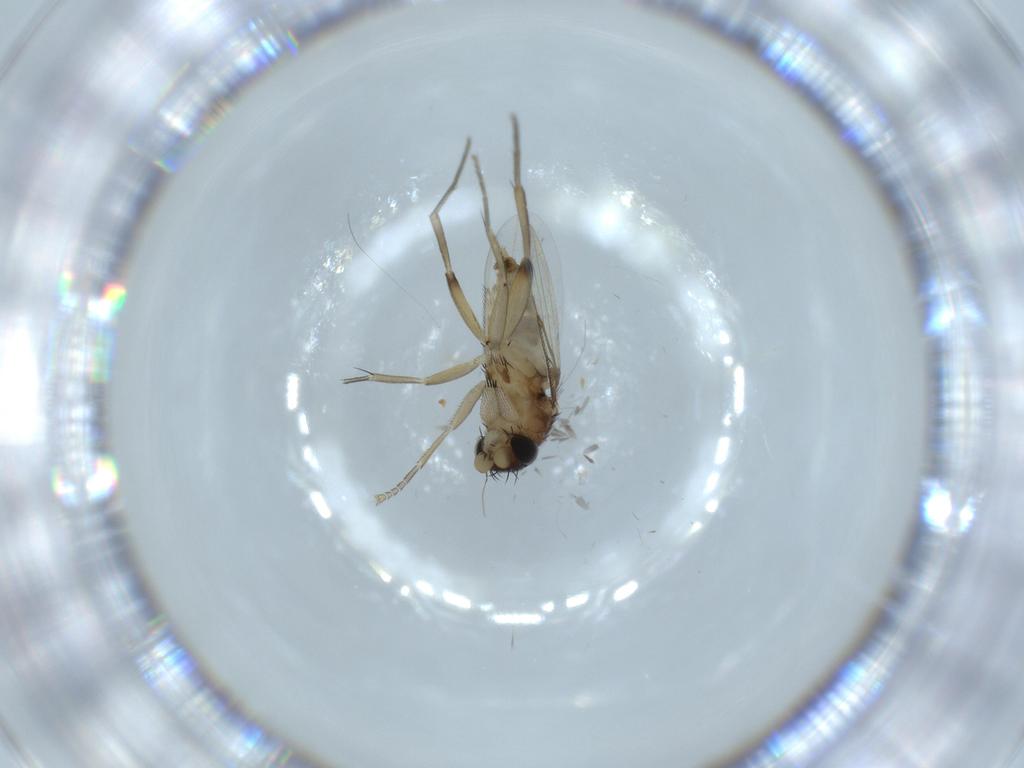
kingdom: Animalia
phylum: Arthropoda
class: Insecta
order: Diptera
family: Phoridae
